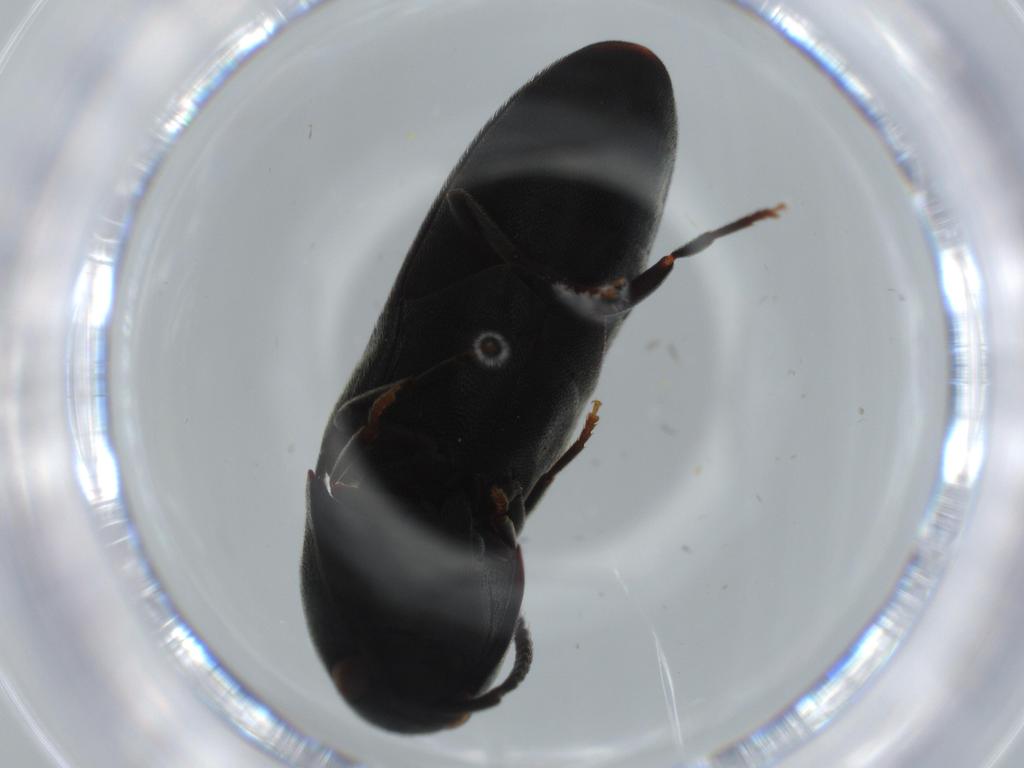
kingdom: Animalia
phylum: Arthropoda
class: Insecta
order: Coleoptera
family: Eucnemidae
